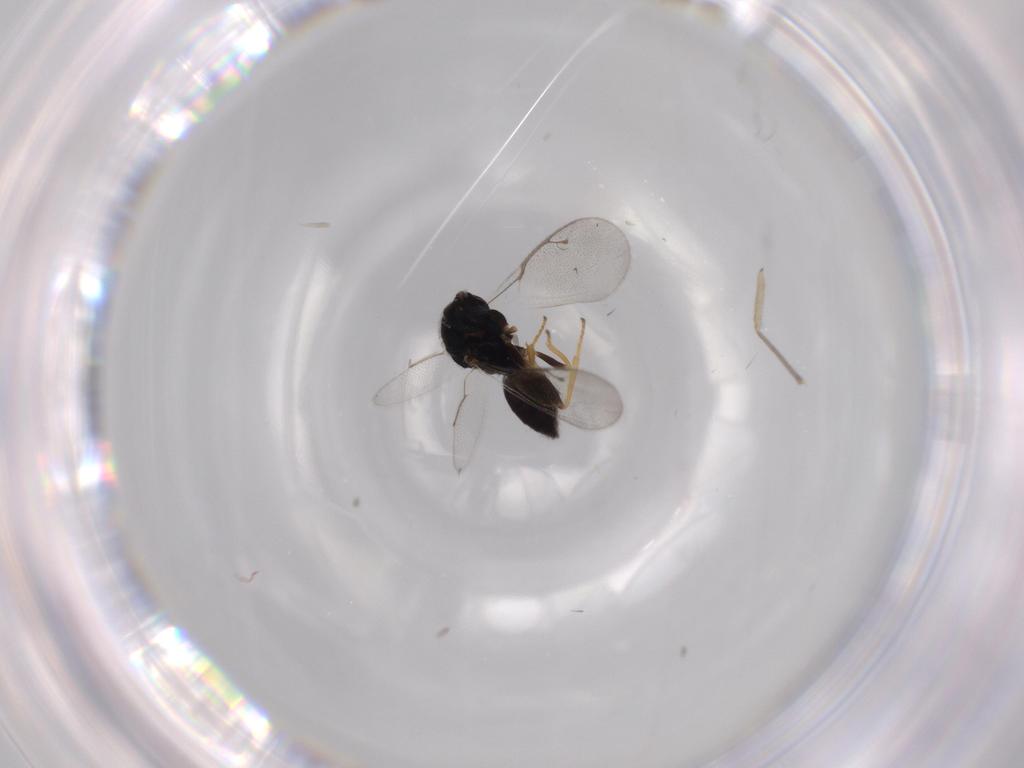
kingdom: Animalia
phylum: Arthropoda
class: Insecta
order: Hymenoptera
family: Pteromalidae
